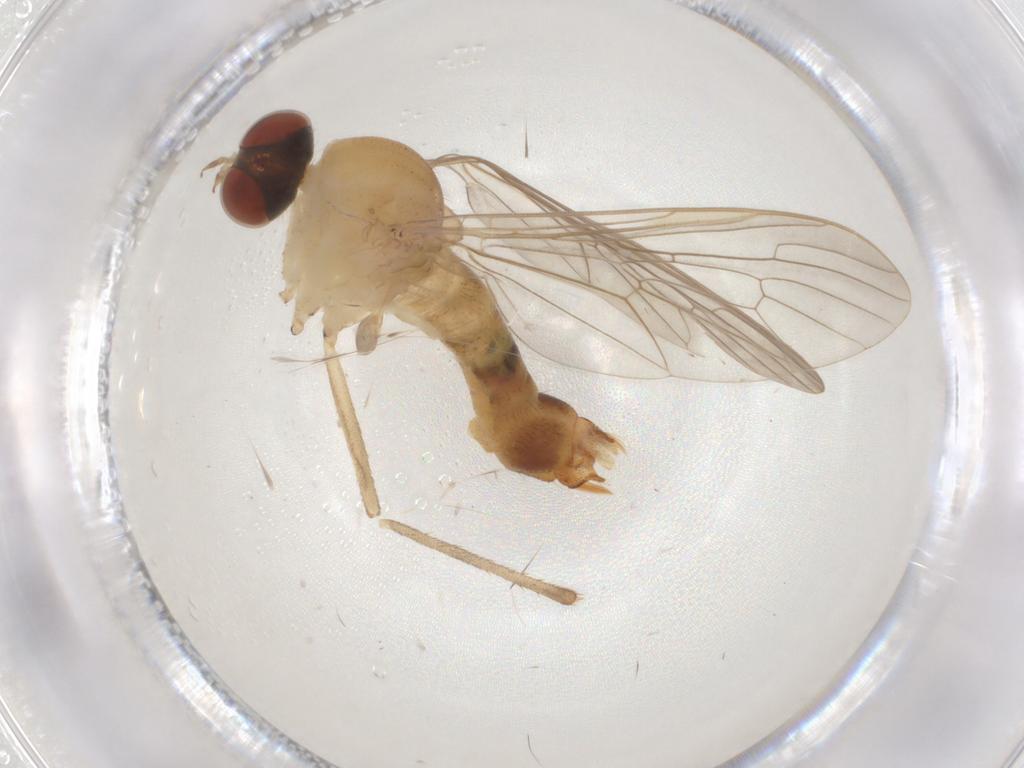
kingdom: Animalia
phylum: Arthropoda
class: Insecta
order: Diptera
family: Apsilocephalidae
